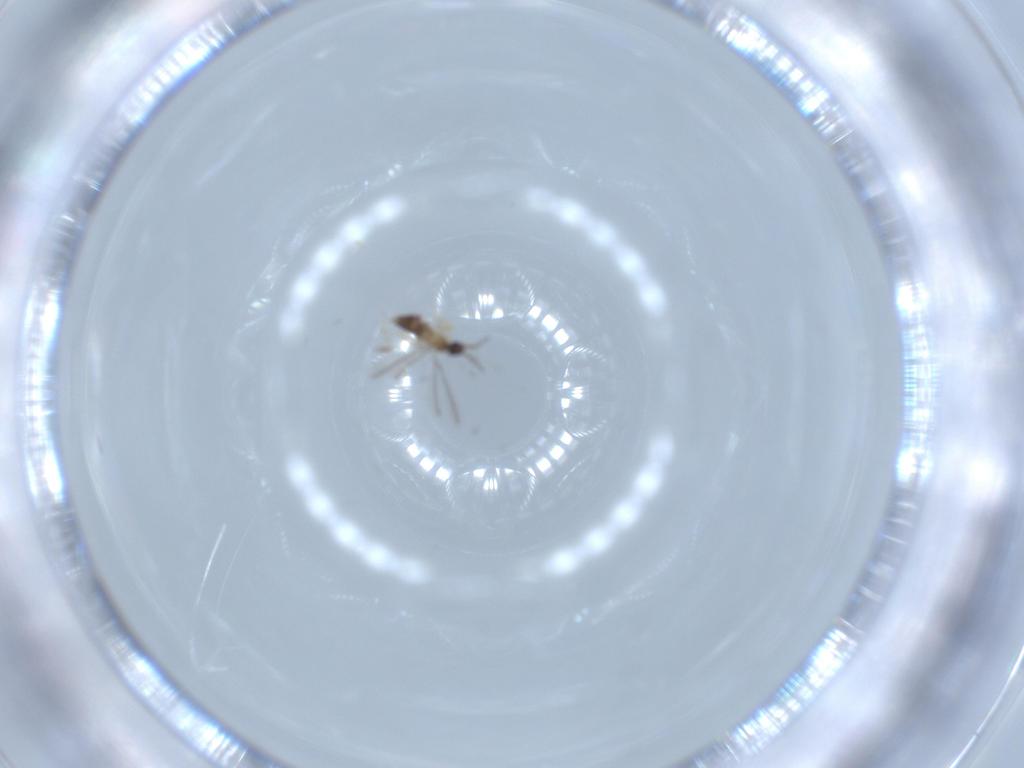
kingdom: Animalia
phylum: Arthropoda
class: Insecta
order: Hymenoptera
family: Mymaridae
